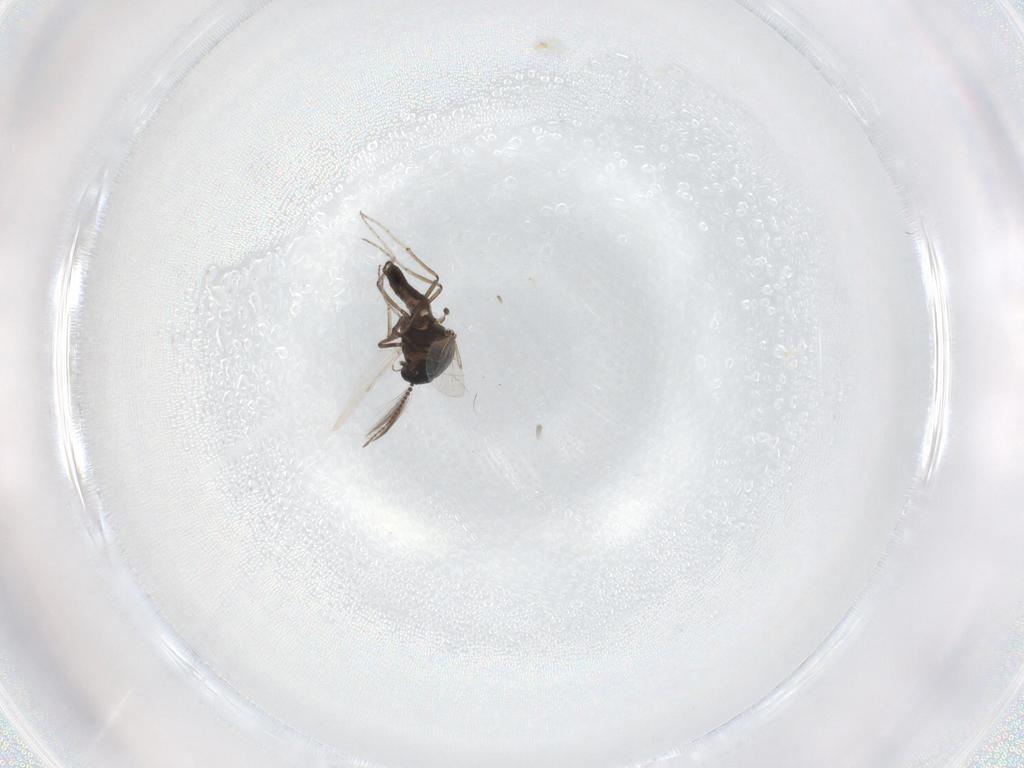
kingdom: Animalia
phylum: Arthropoda
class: Insecta
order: Diptera
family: Ceratopogonidae
